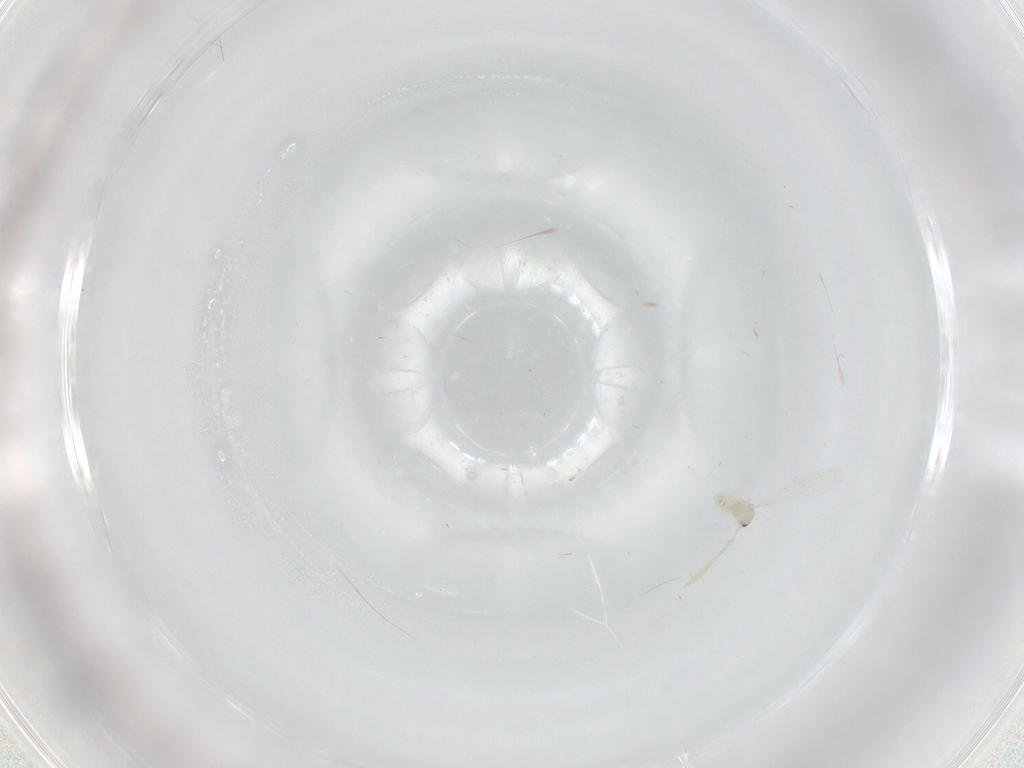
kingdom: Animalia
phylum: Arthropoda
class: Insecta
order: Diptera
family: Cecidomyiidae
